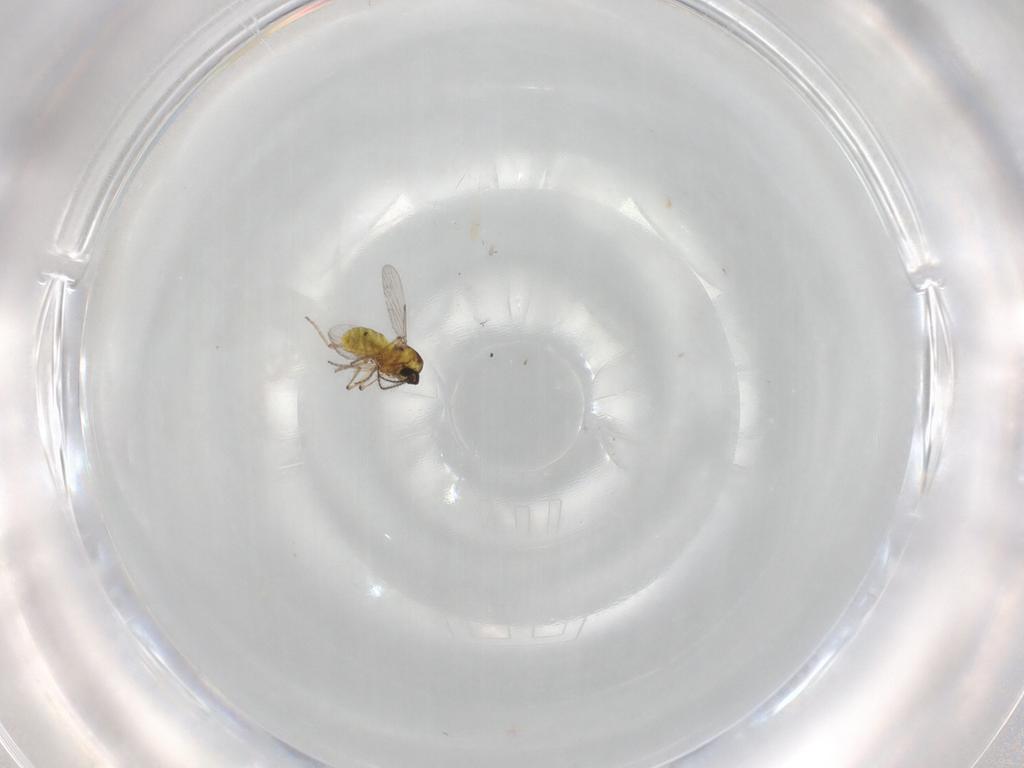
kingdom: Animalia
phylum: Arthropoda
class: Insecta
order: Diptera
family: Ceratopogonidae
